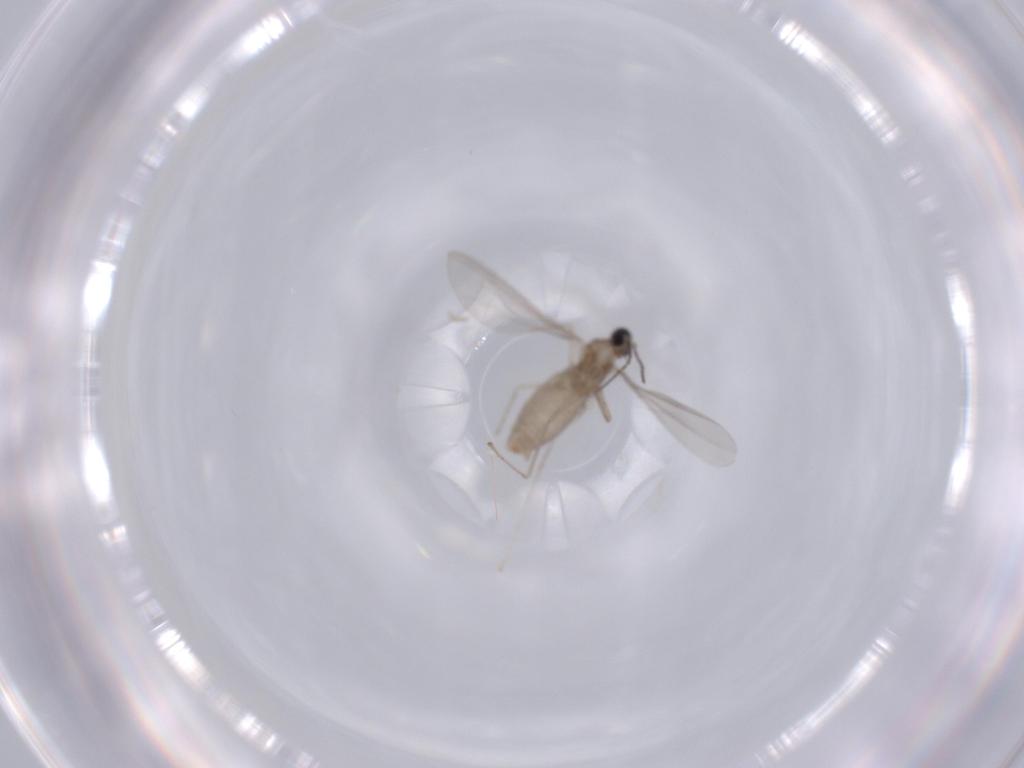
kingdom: Animalia
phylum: Arthropoda
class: Insecta
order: Diptera
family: Cecidomyiidae
